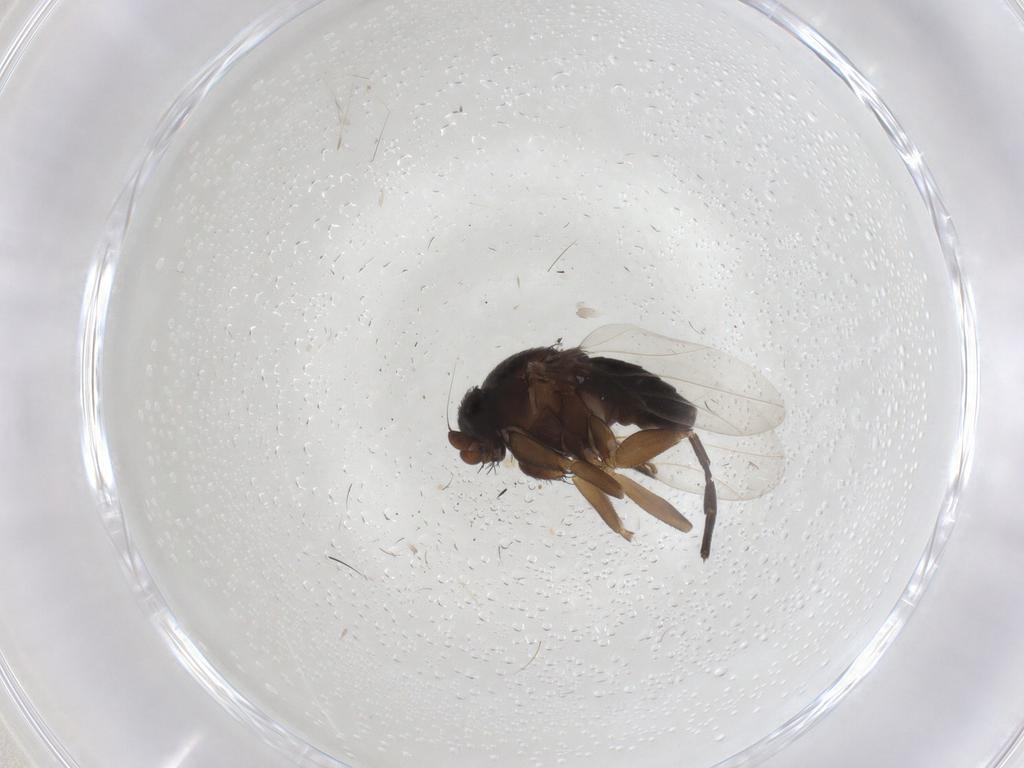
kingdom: Animalia
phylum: Arthropoda
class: Insecta
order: Diptera
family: Phoridae
